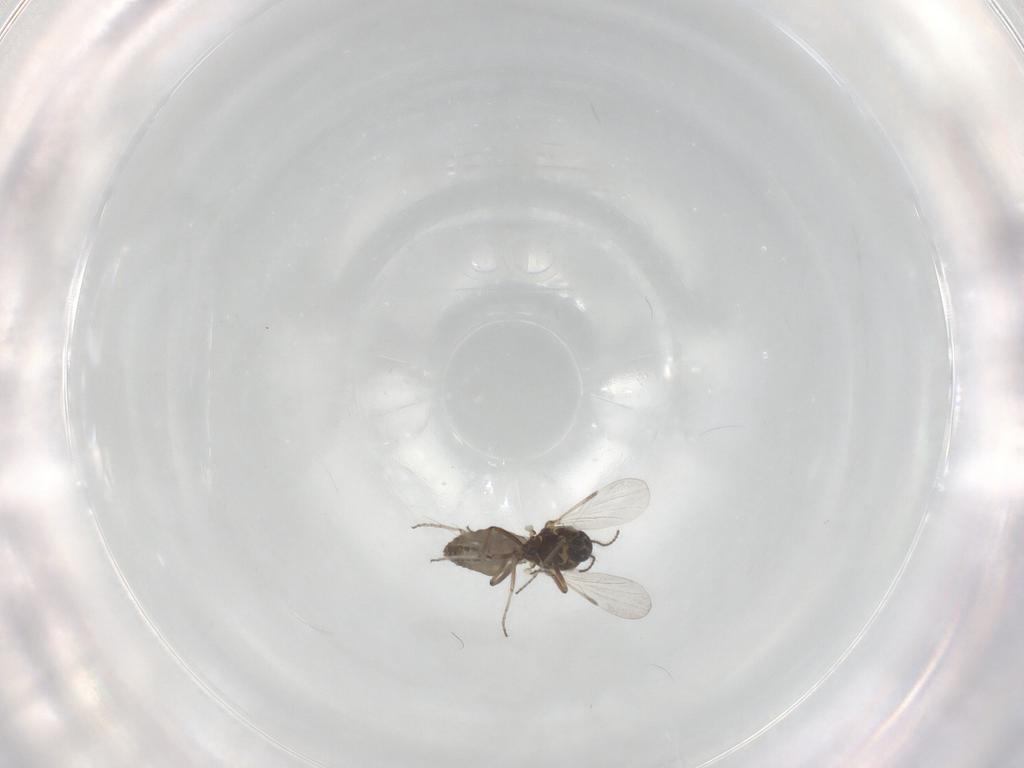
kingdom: Animalia
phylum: Arthropoda
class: Insecta
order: Diptera
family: Ceratopogonidae
